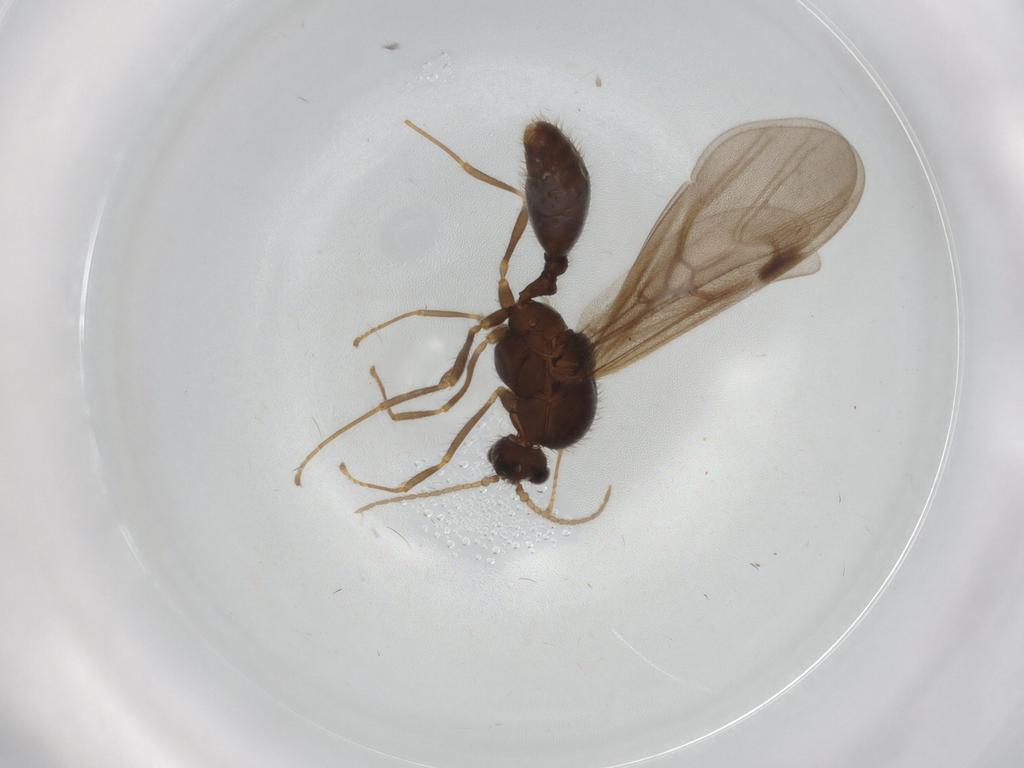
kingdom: Animalia
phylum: Arthropoda
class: Insecta
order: Hymenoptera
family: Formicidae
